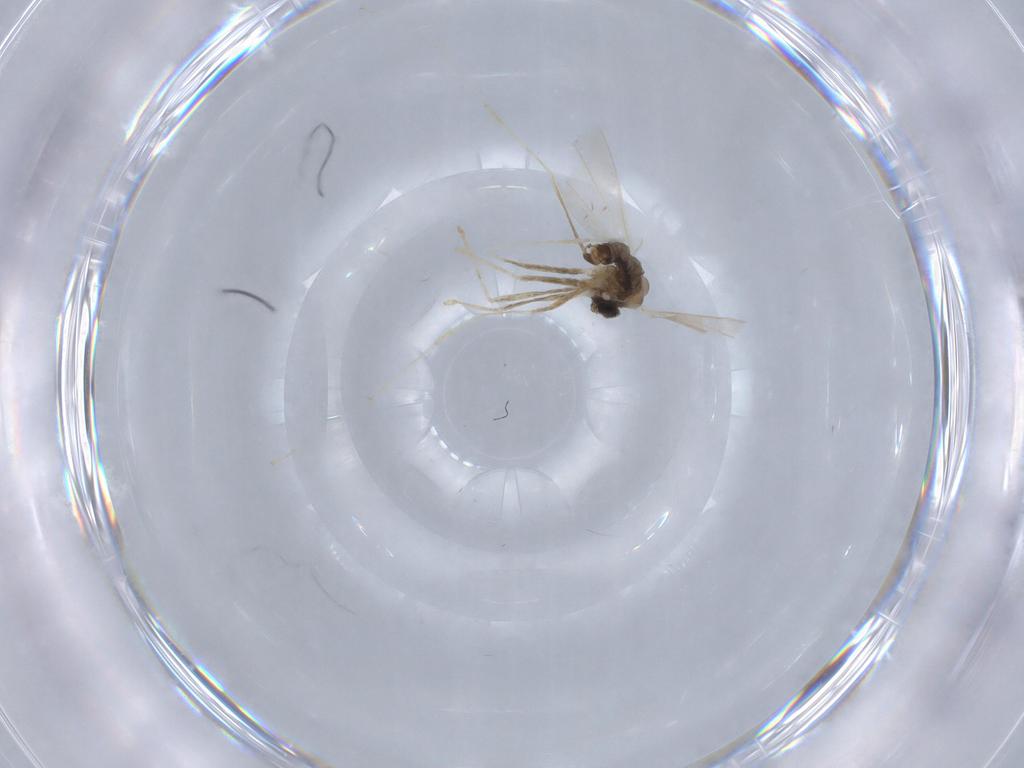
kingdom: Animalia
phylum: Arthropoda
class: Insecta
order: Diptera
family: Cecidomyiidae
